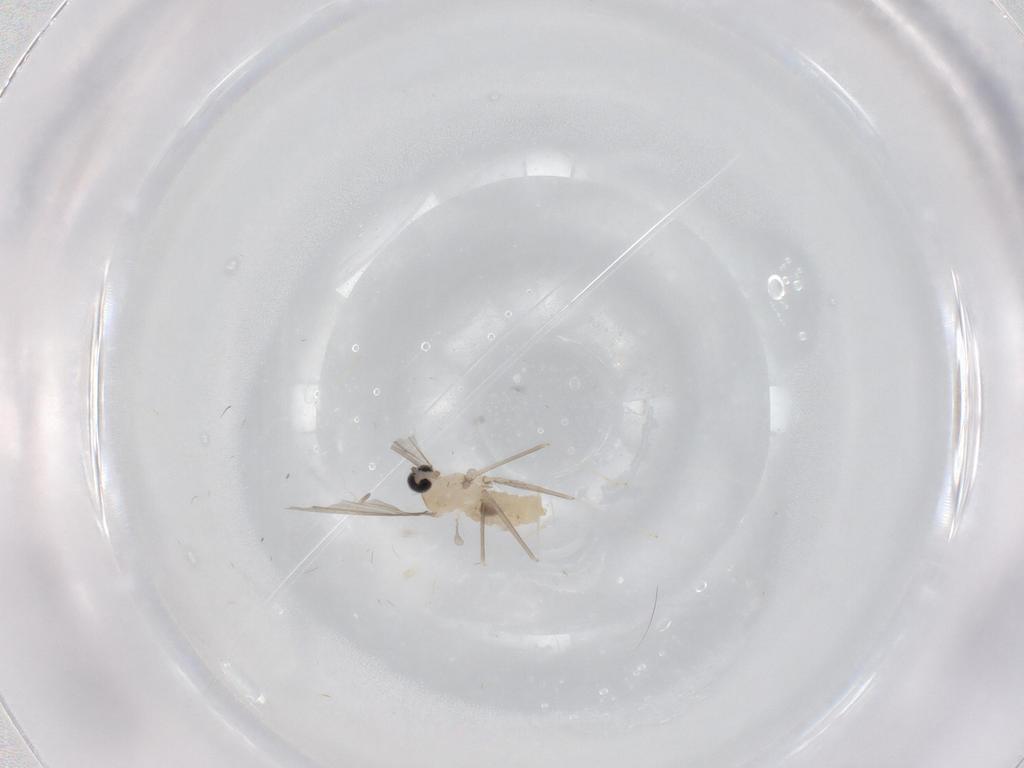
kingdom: Animalia
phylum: Arthropoda
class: Insecta
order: Diptera
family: Cecidomyiidae
